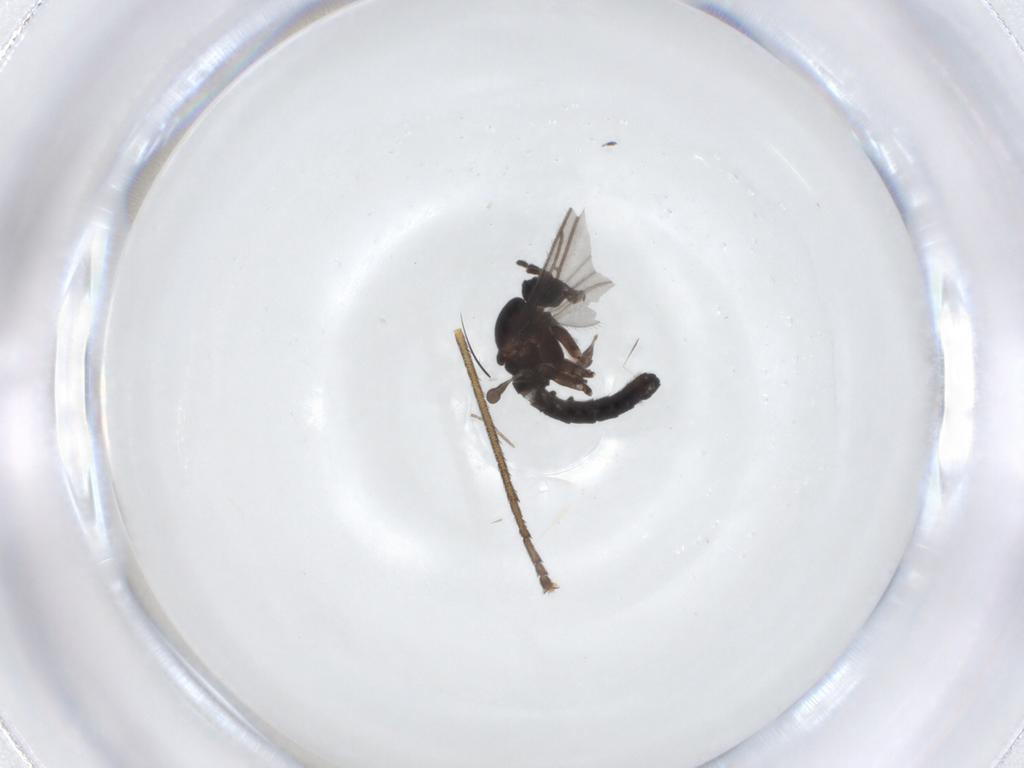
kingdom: Animalia
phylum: Arthropoda
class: Insecta
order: Diptera
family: Sciaridae
